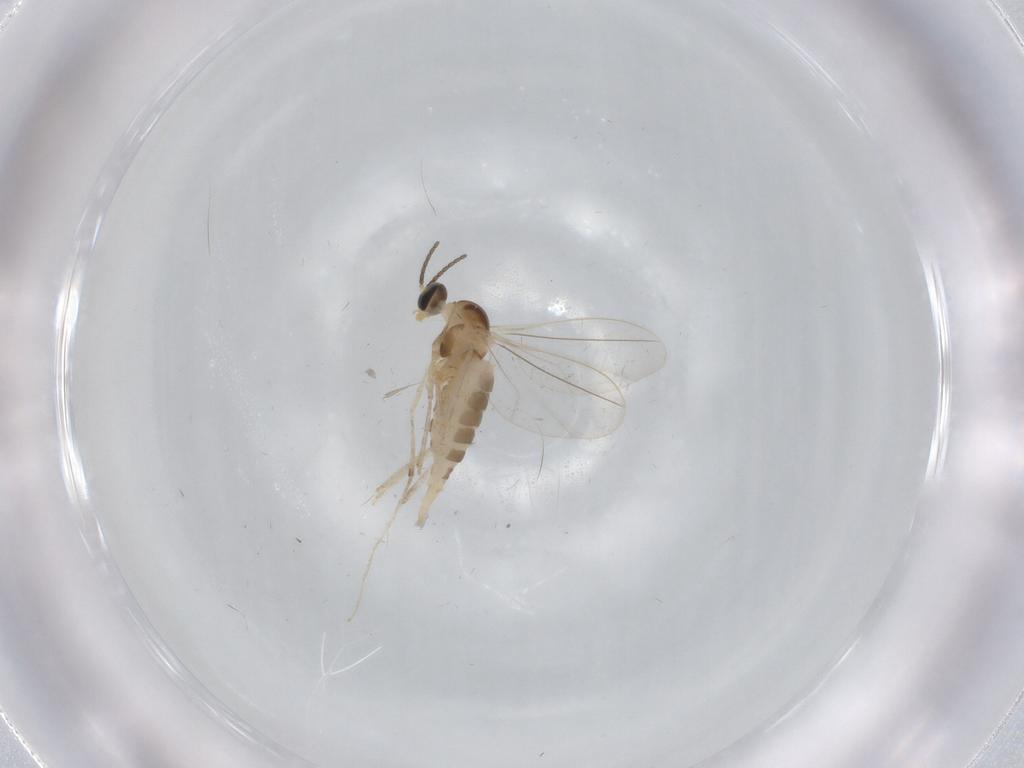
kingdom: Animalia
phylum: Arthropoda
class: Insecta
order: Diptera
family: Cecidomyiidae
